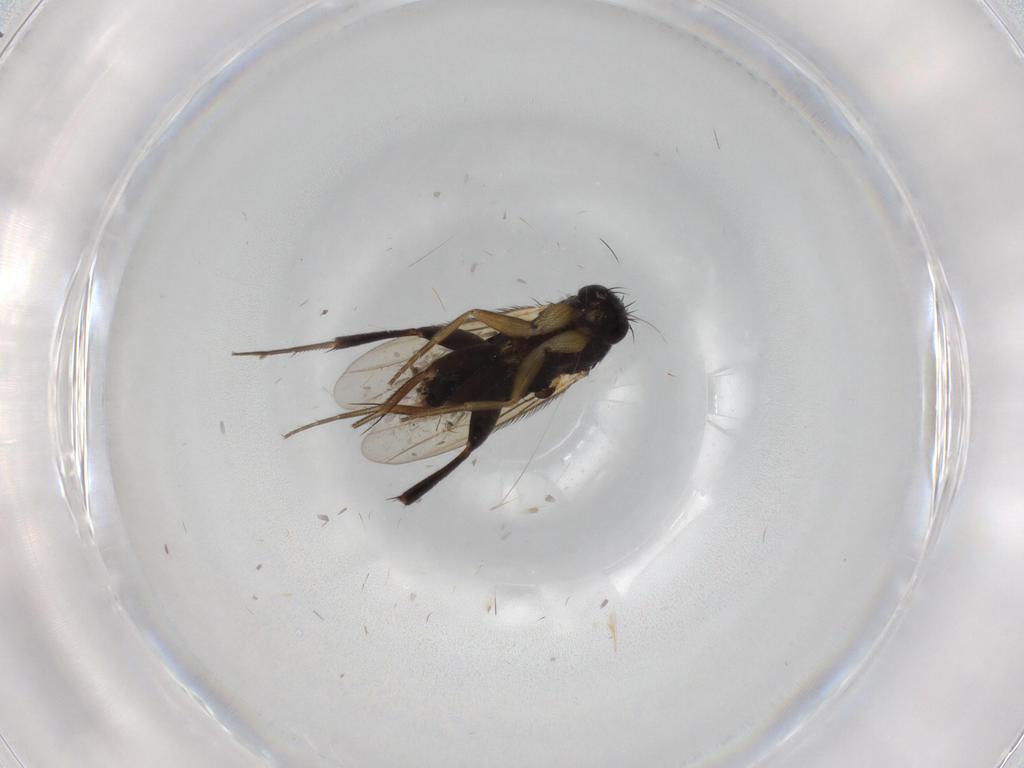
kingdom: Animalia
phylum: Arthropoda
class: Insecta
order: Diptera
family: Phoridae
